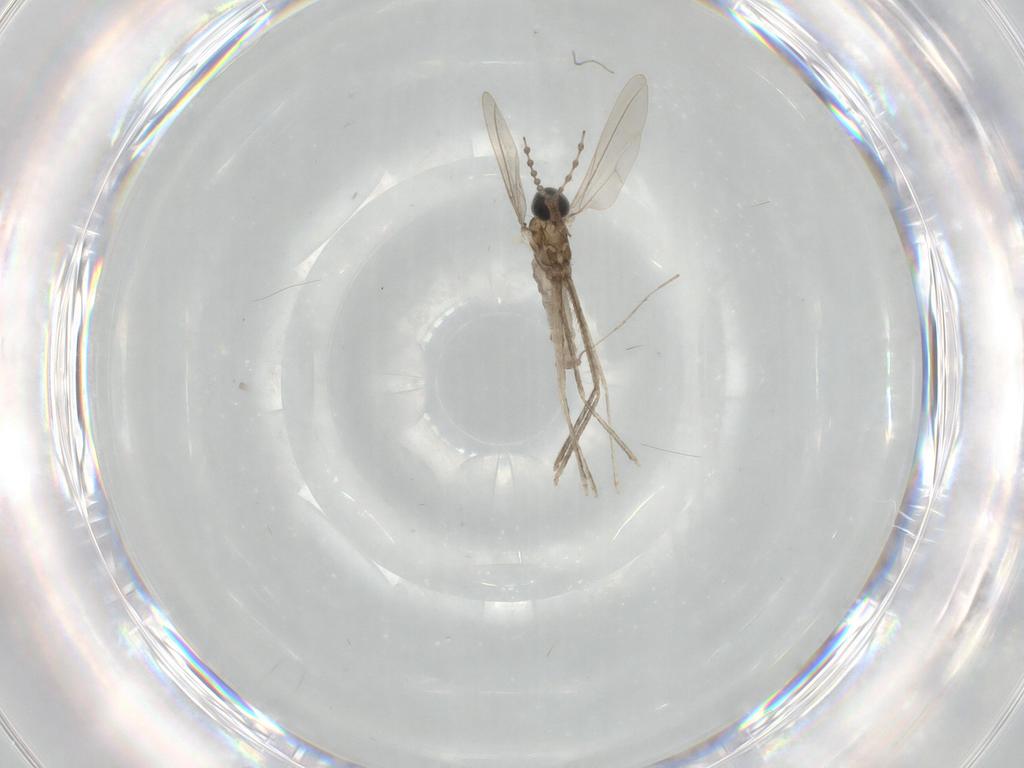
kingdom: Animalia
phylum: Arthropoda
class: Insecta
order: Diptera
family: Cecidomyiidae
